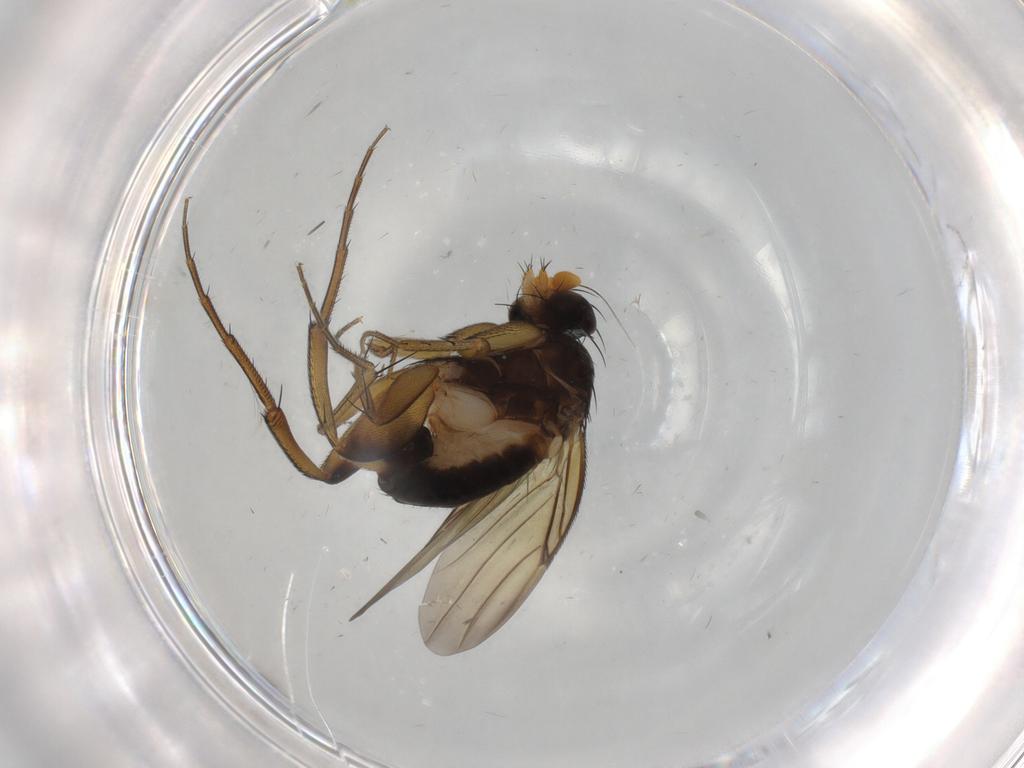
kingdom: Animalia
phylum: Arthropoda
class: Insecta
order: Diptera
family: Phoridae
